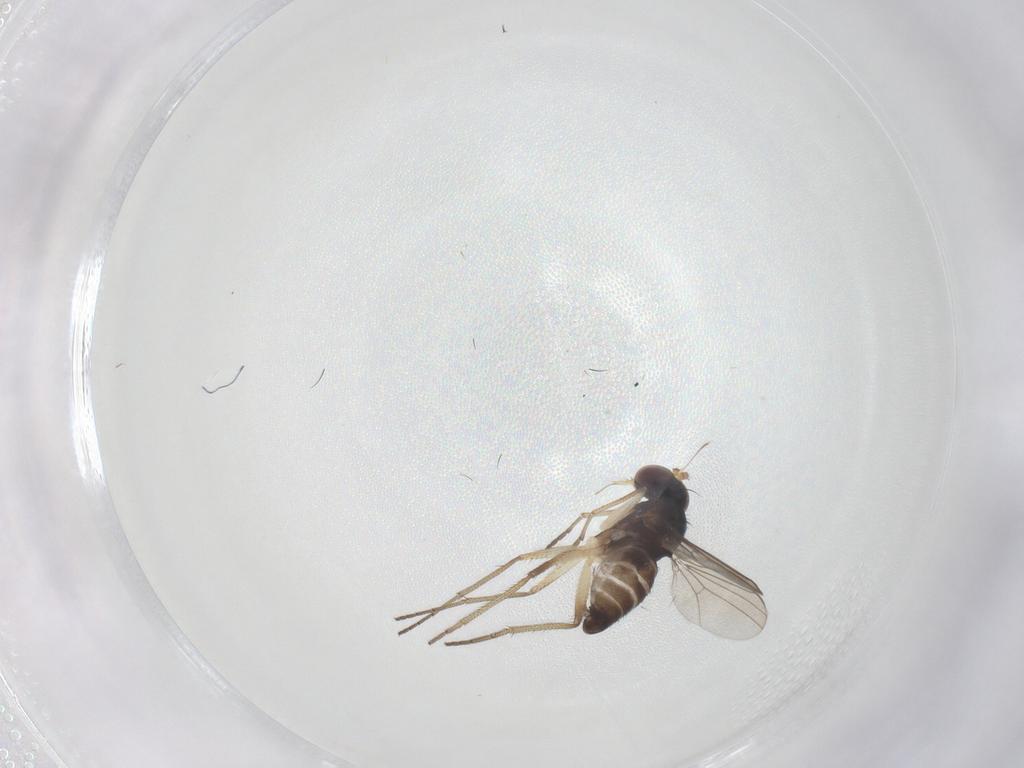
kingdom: Animalia
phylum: Arthropoda
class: Insecta
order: Diptera
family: Dolichopodidae
